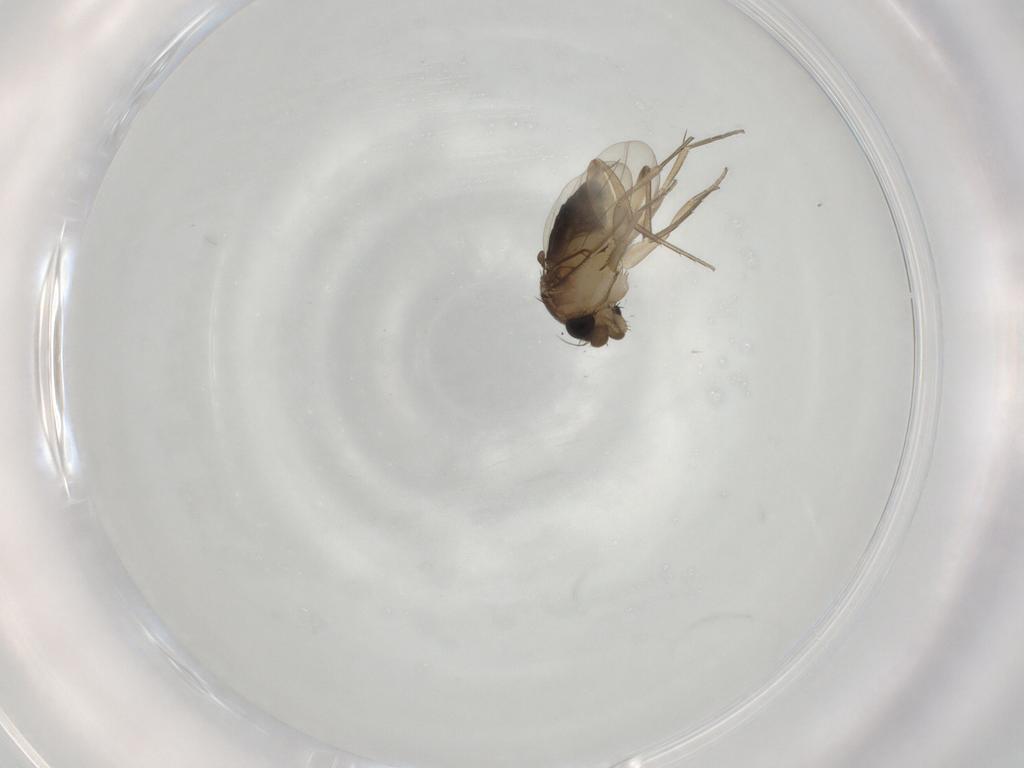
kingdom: Animalia
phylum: Arthropoda
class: Insecta
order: Diptera
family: Phoridae
